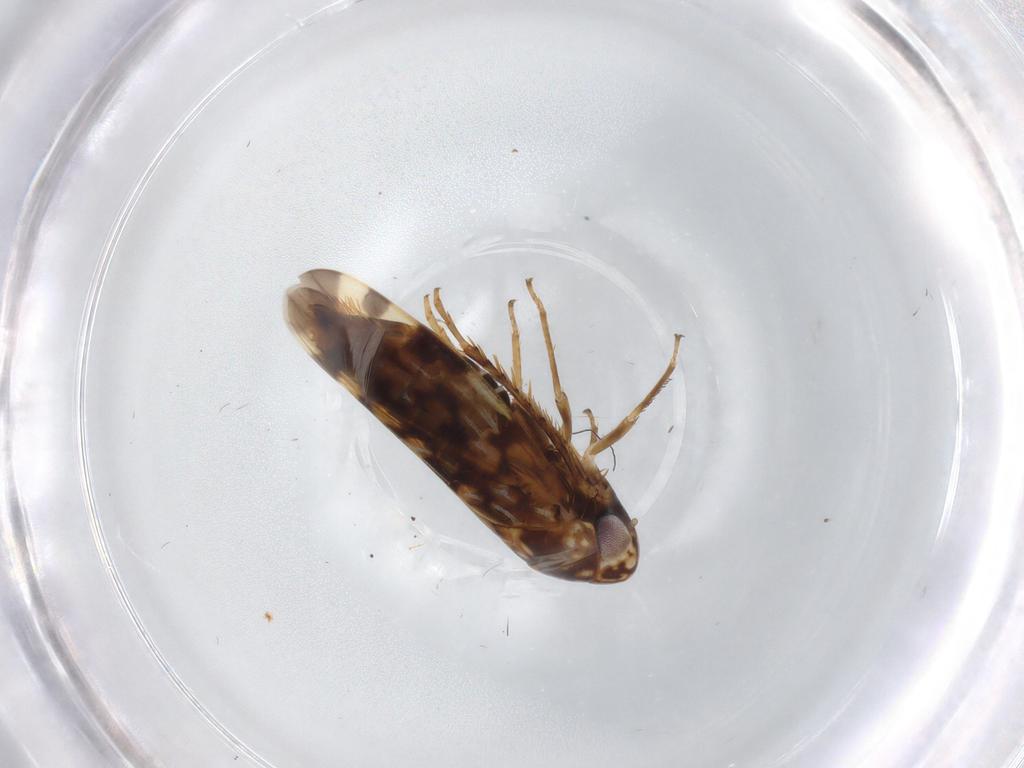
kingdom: Animalia
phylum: Arthropoda
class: Insecta
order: Hemiptera
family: Cicadellidae
